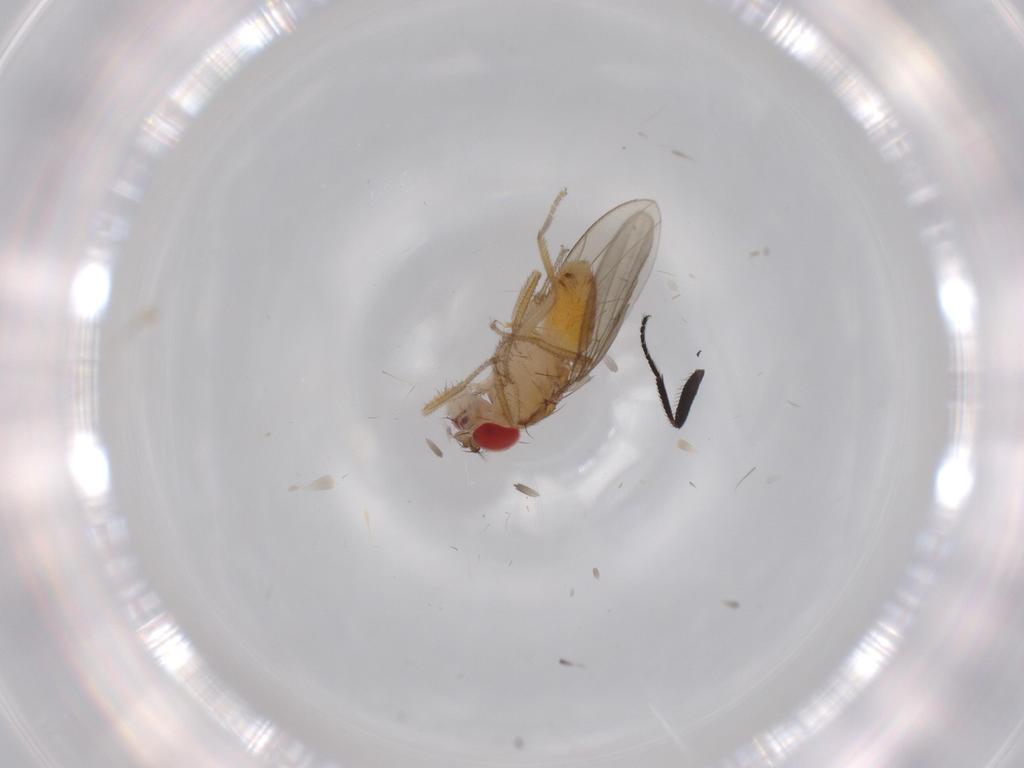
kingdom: Animalia
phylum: Arthropoda
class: Insecta
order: Diptera
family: Drosophilidae
